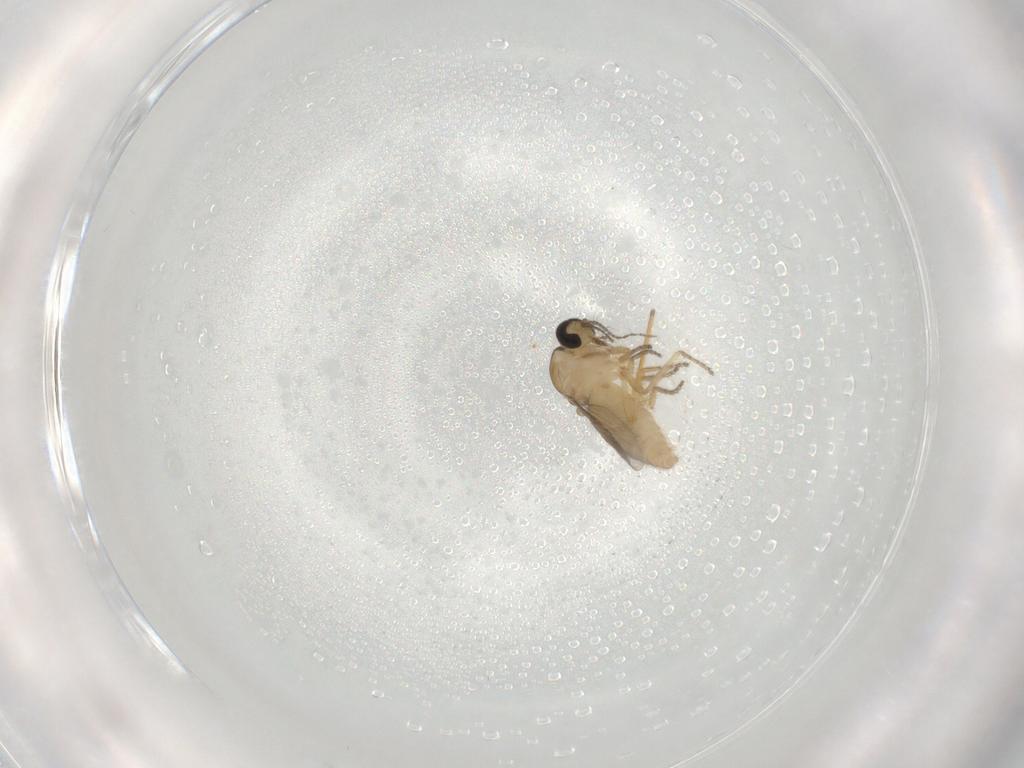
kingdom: Animalia
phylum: Arthropoda
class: Insecta
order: Diptera
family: Ceratopogonidae
